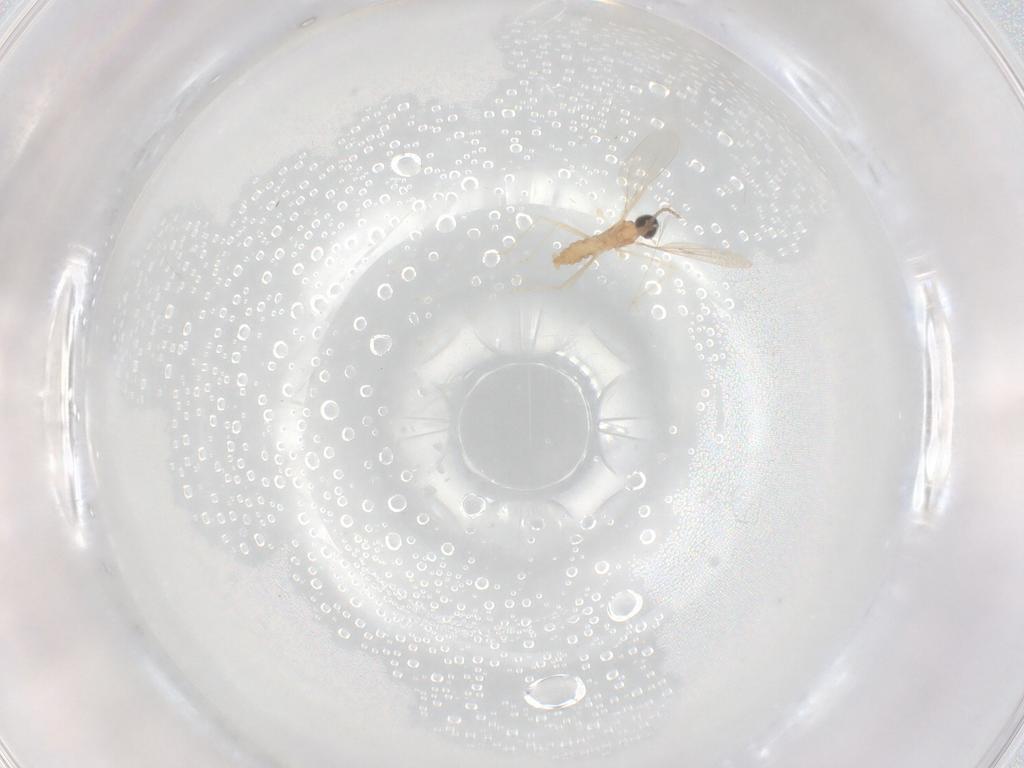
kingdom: Animalia
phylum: Arthropoda
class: Insecta
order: Diptera
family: Cecidomyiidae
